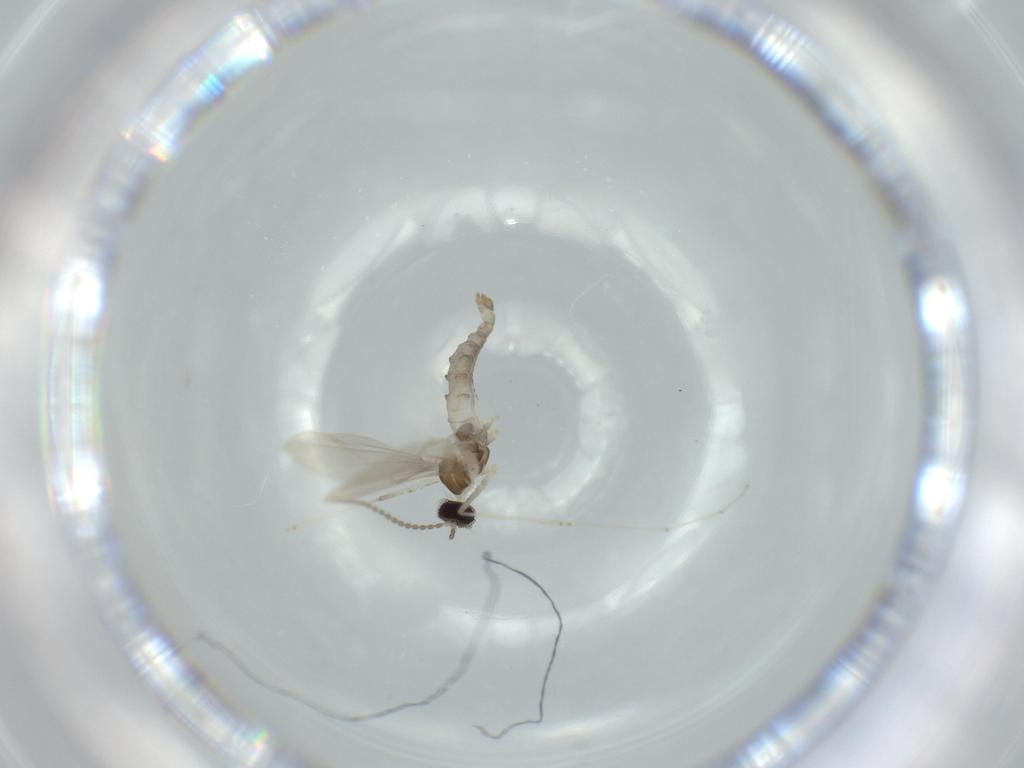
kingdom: Animalia
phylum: Arthropoda
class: Insecta
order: Diptera
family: Cecidomyiidae
